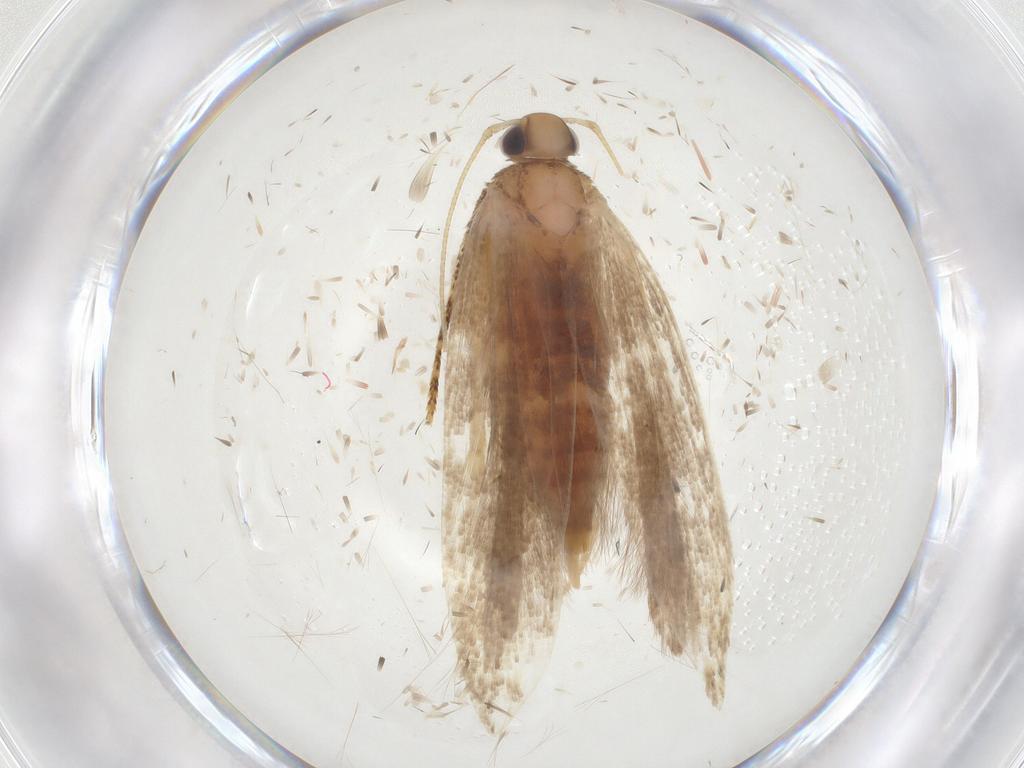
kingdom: Animalia
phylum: Arthropoda
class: Insecta
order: Lepidoptera
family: Gelechiidae
